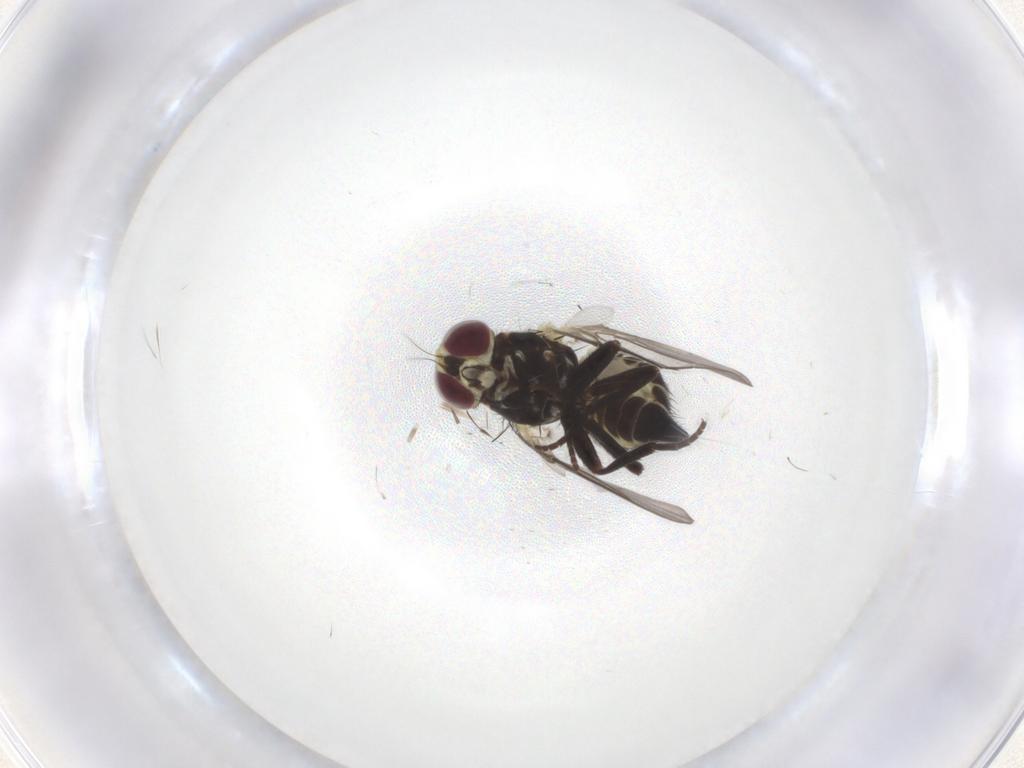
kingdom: Animalia
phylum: Arthropoda
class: Insecta
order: Diptera
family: Agromyzidae
